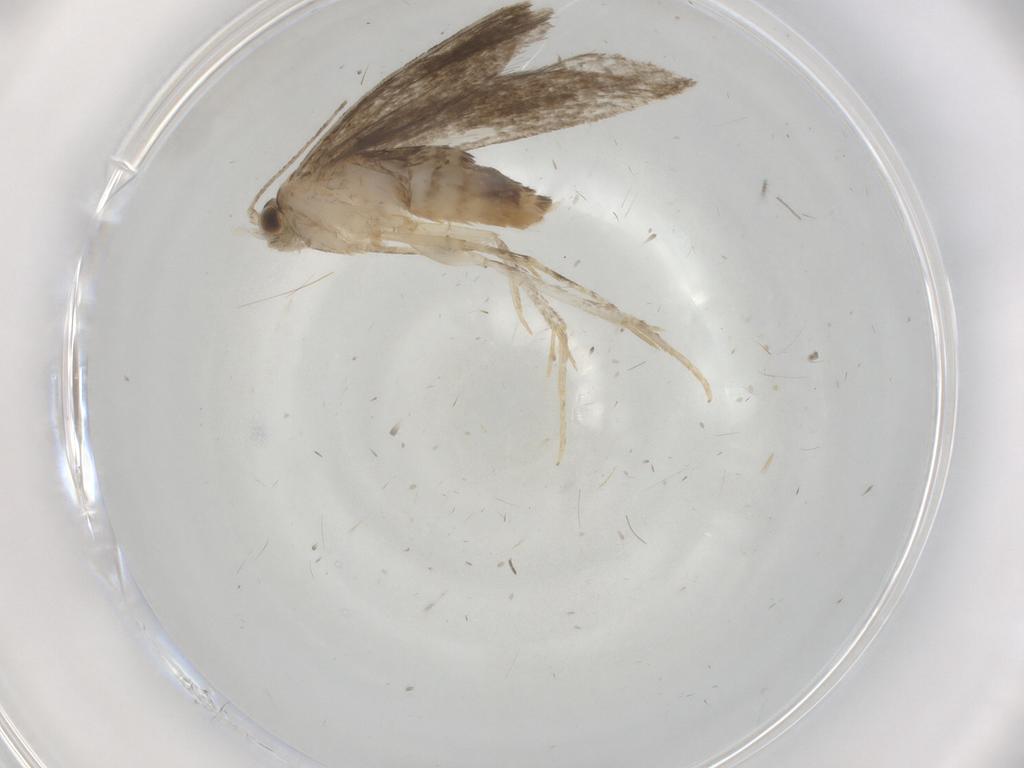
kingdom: Animalia
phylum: Arthropoda
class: Insecta
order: Lepidoptera
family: Tineidae
